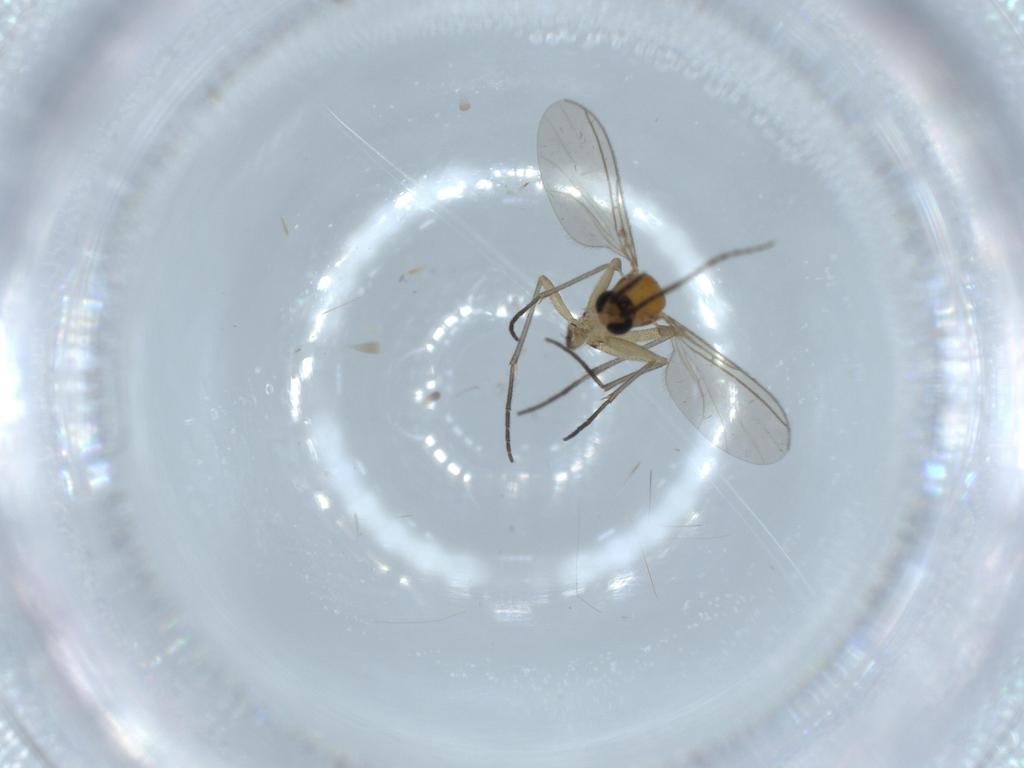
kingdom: Animalia
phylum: Arthropoda
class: Insecta
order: Diptera
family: Sciaridae
